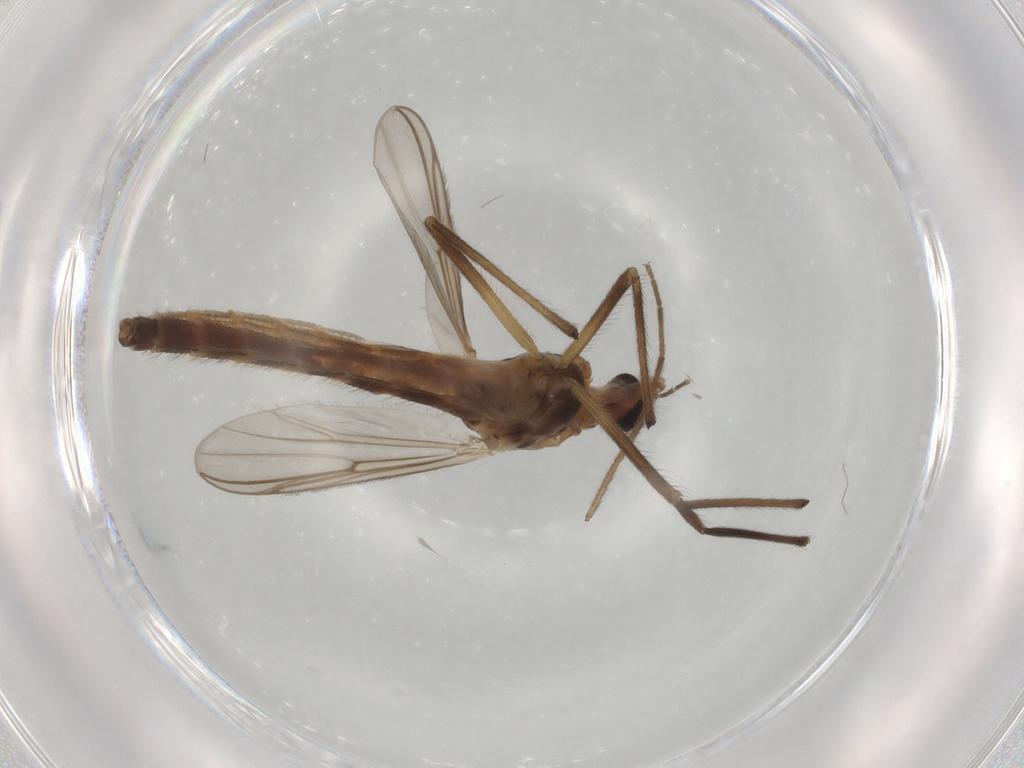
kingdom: Animalia
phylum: Arthropoda
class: Insecta
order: Diptera
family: Chironomidae
